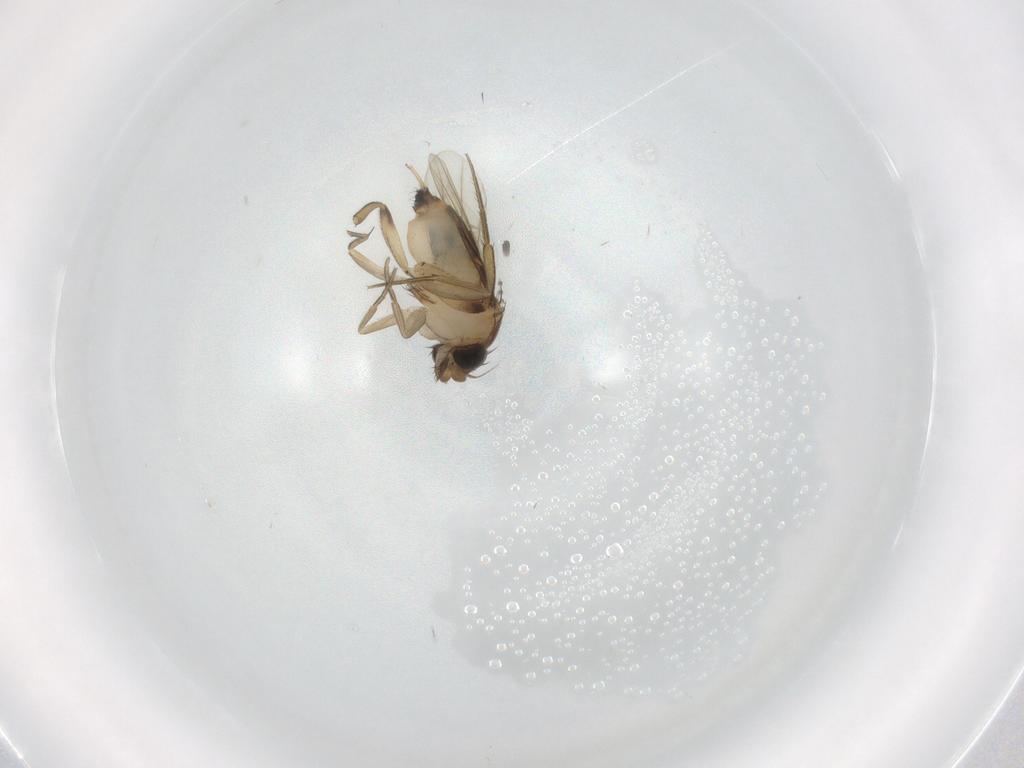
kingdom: Animalia
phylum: Arthropoda
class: Insecta
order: Diptera
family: Phoridae
